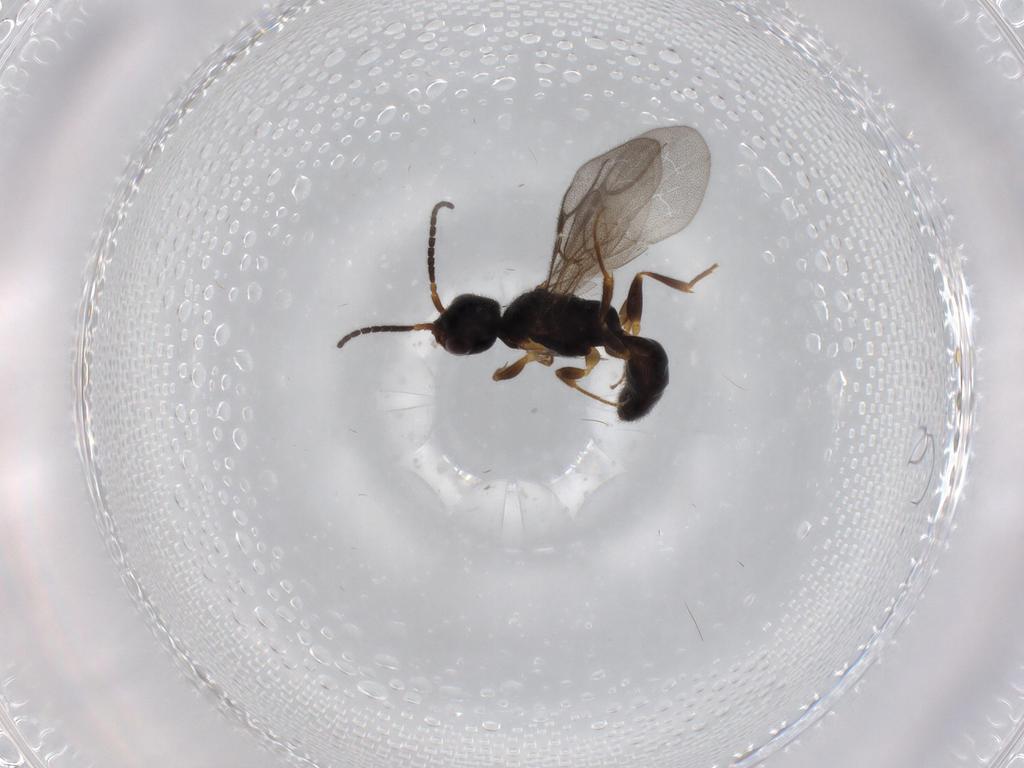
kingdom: Animalia
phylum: Arthropoda
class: Insecta
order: Hymenoptera
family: Bethylidae
